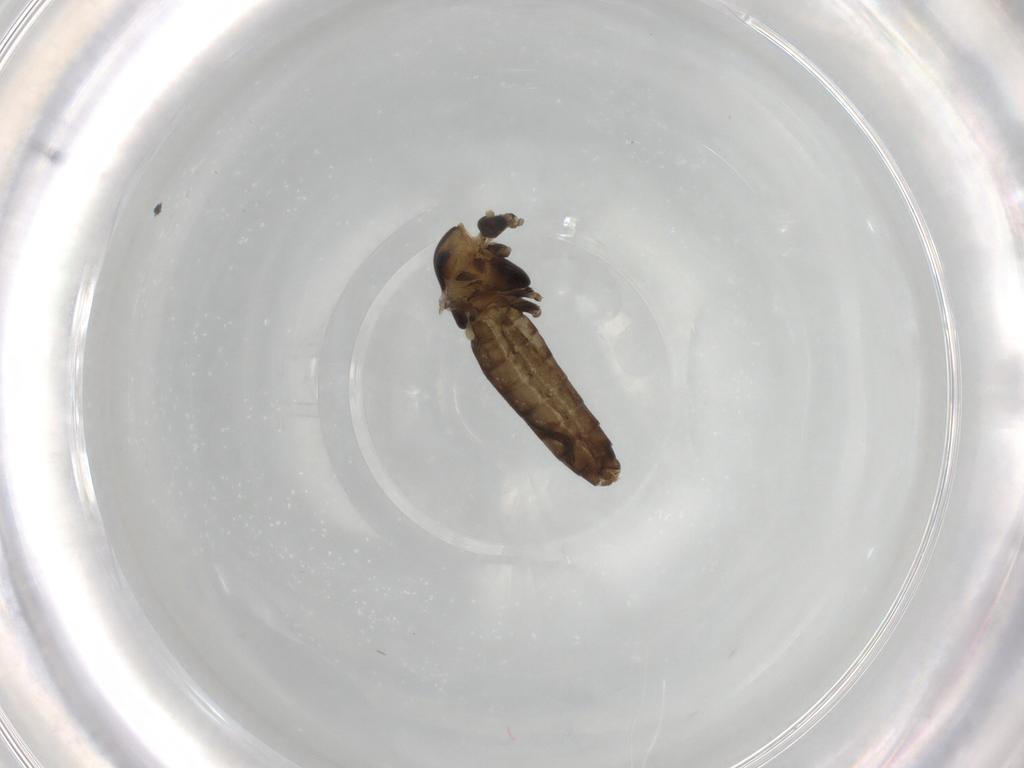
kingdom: Animalia
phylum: Arthropoda
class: Insecta
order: Diptera
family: Chironomidae
